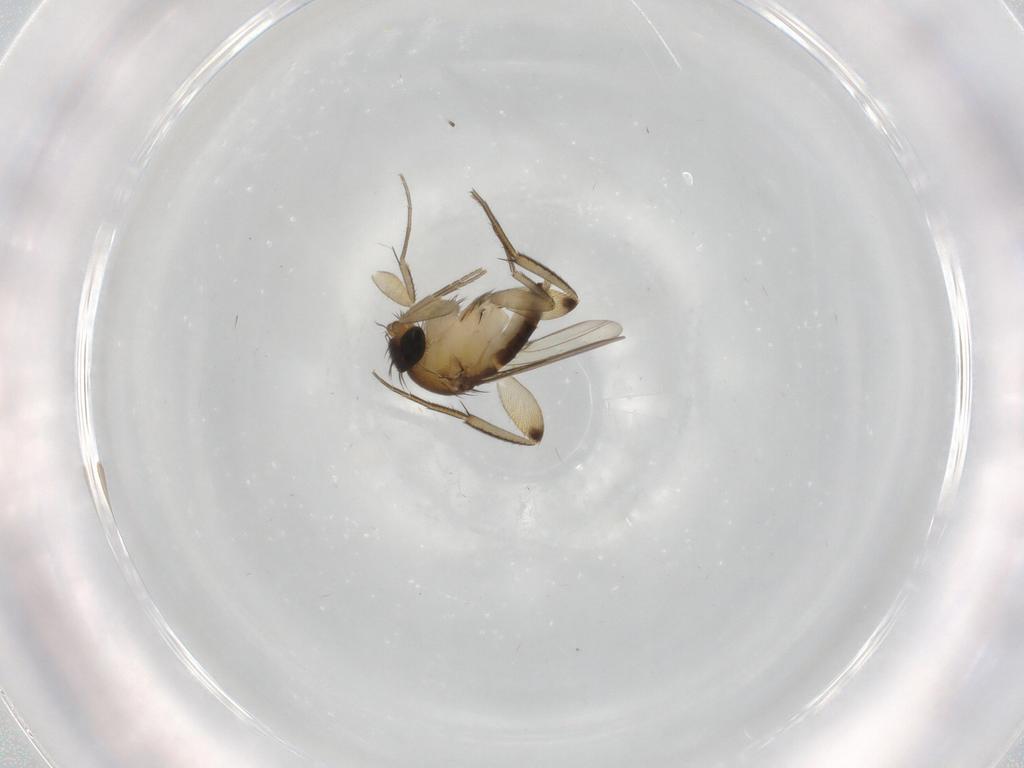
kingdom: Animalia
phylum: Arthropoda
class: Insecta
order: Diptera
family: Phoridae
